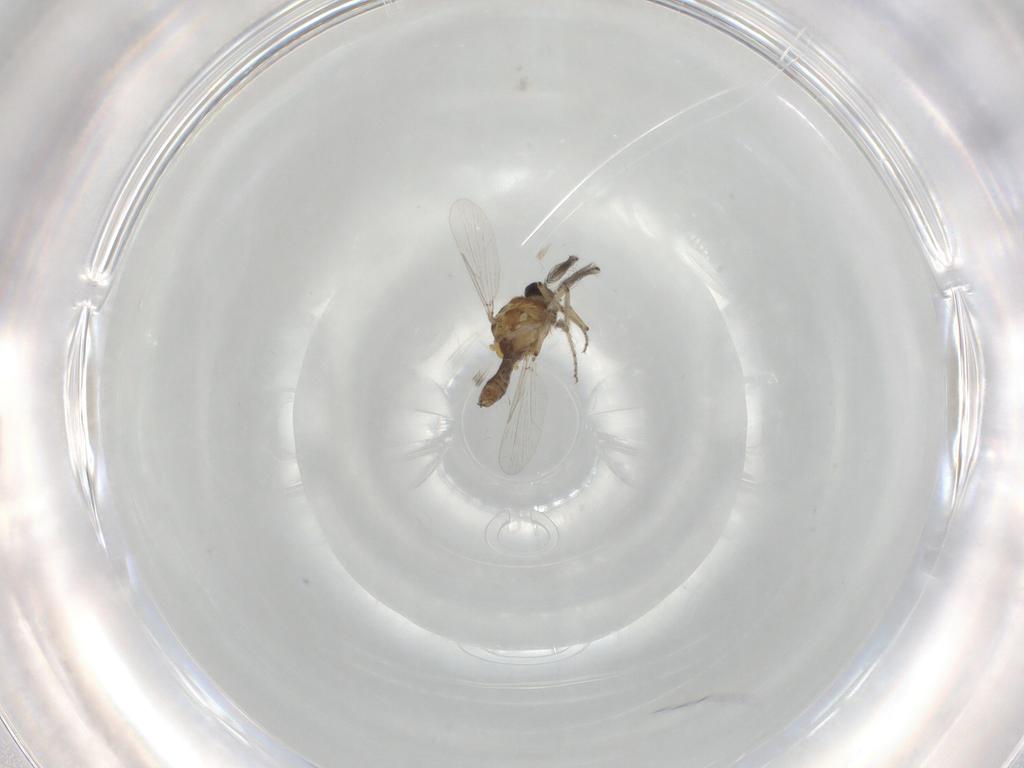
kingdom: Animalia
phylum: Arthropoda
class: Insecta
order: Diptera
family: Ceratopogonidae
